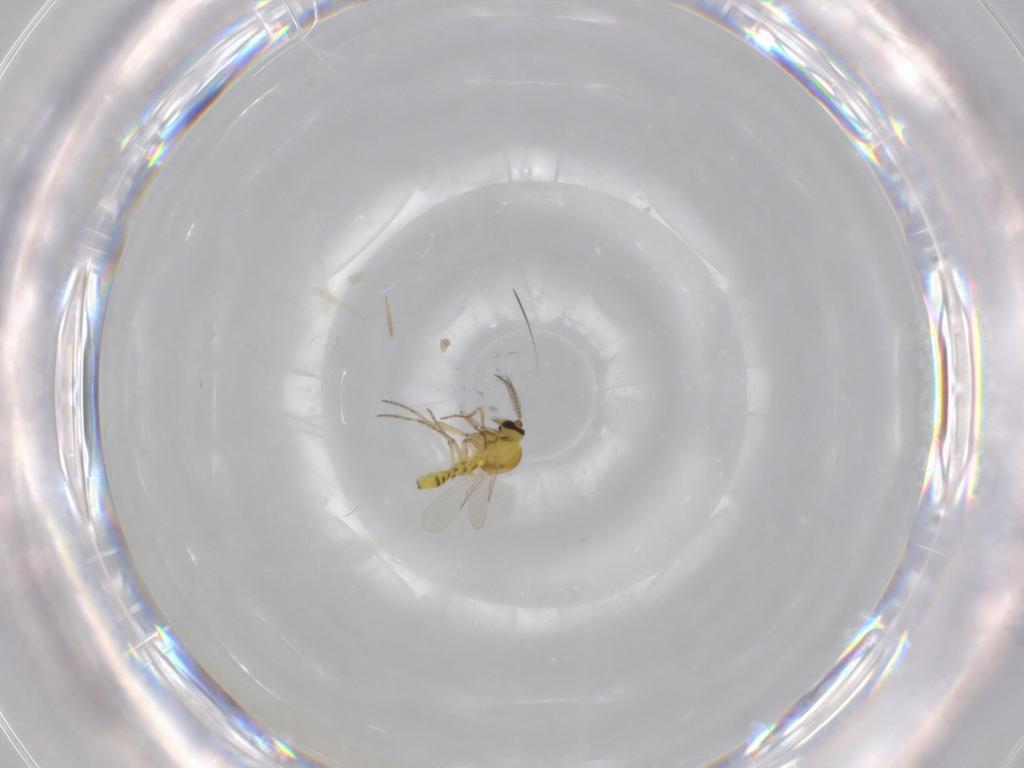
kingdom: Animalia
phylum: Arthropoda
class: Insecta
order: Diptera
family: Ceratopogonidae
